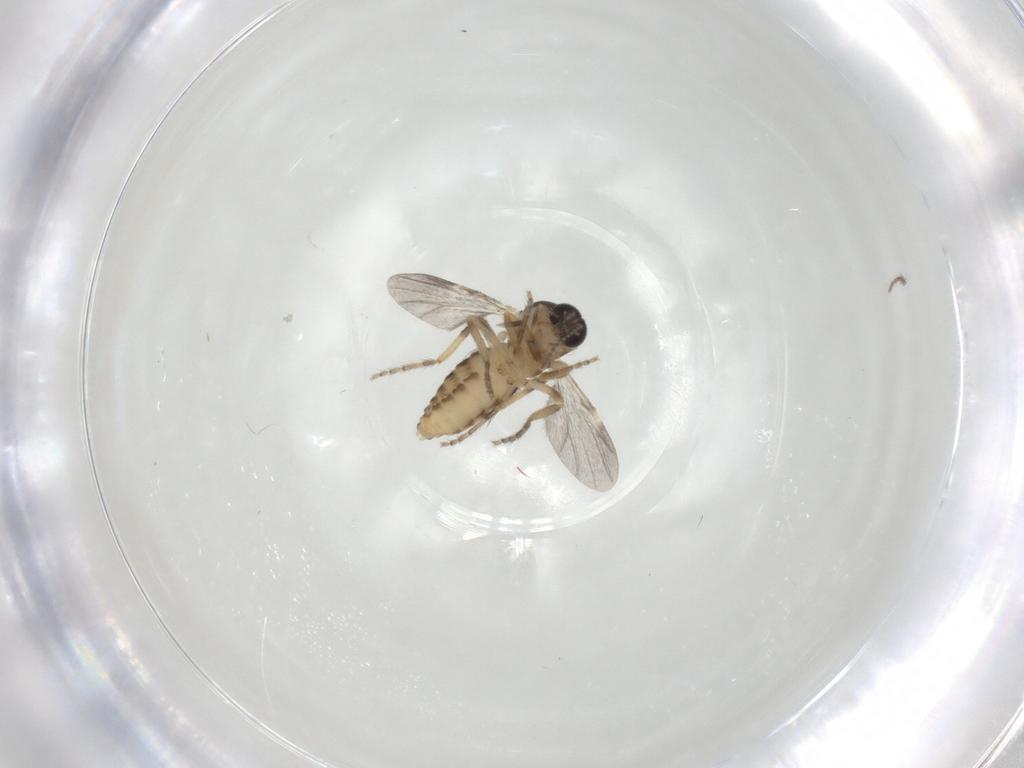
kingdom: Animalia
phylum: Arthropoda
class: Insecta
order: Diptera
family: Ceratopogonidae
